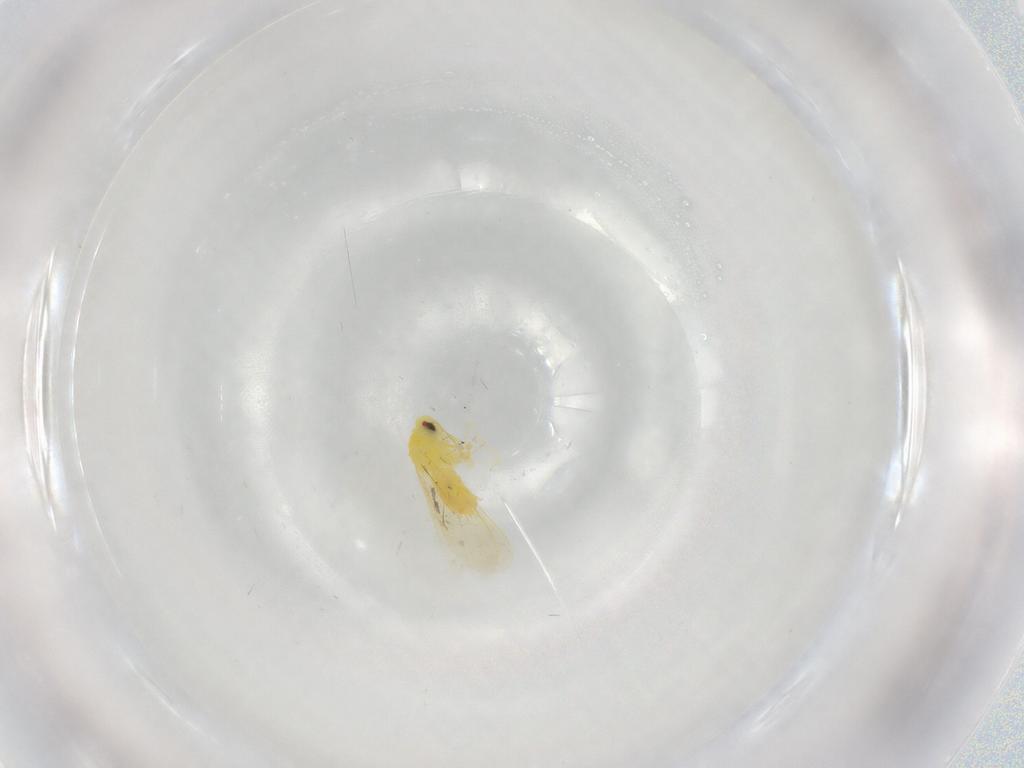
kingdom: Animalia
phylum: Arthropoda
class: Insecta
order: Hemiptera
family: Aleyrodidae
